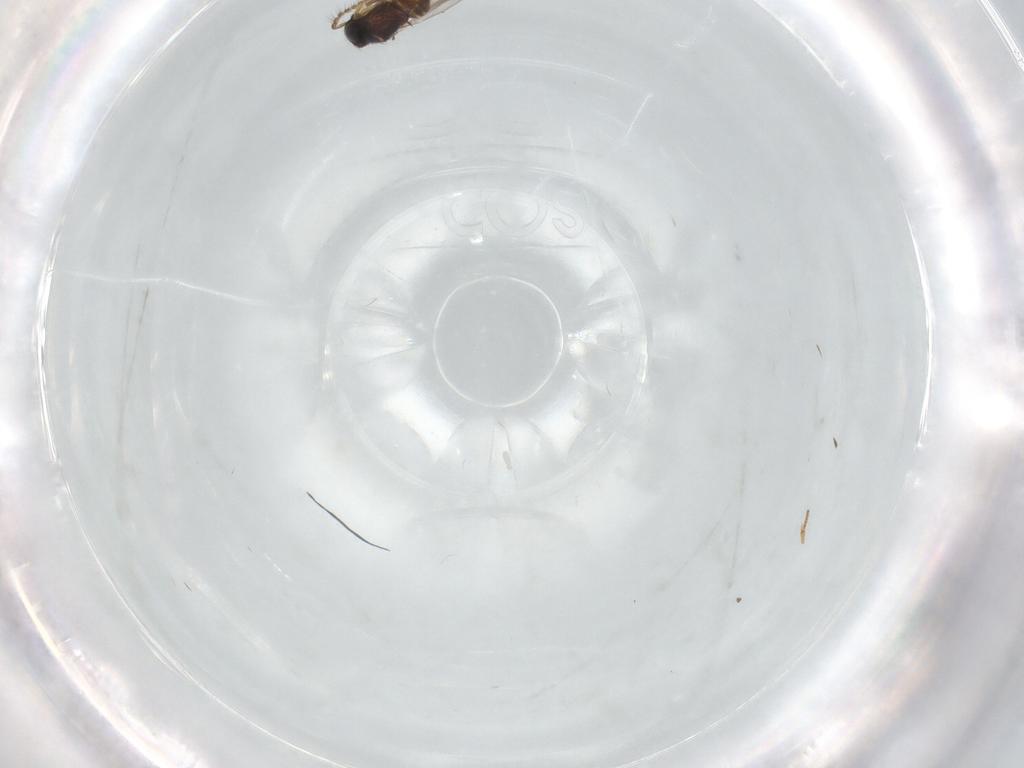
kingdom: Animalia
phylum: Arthropoda
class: Insecta
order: Hymenoptera
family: Encyrtidae
